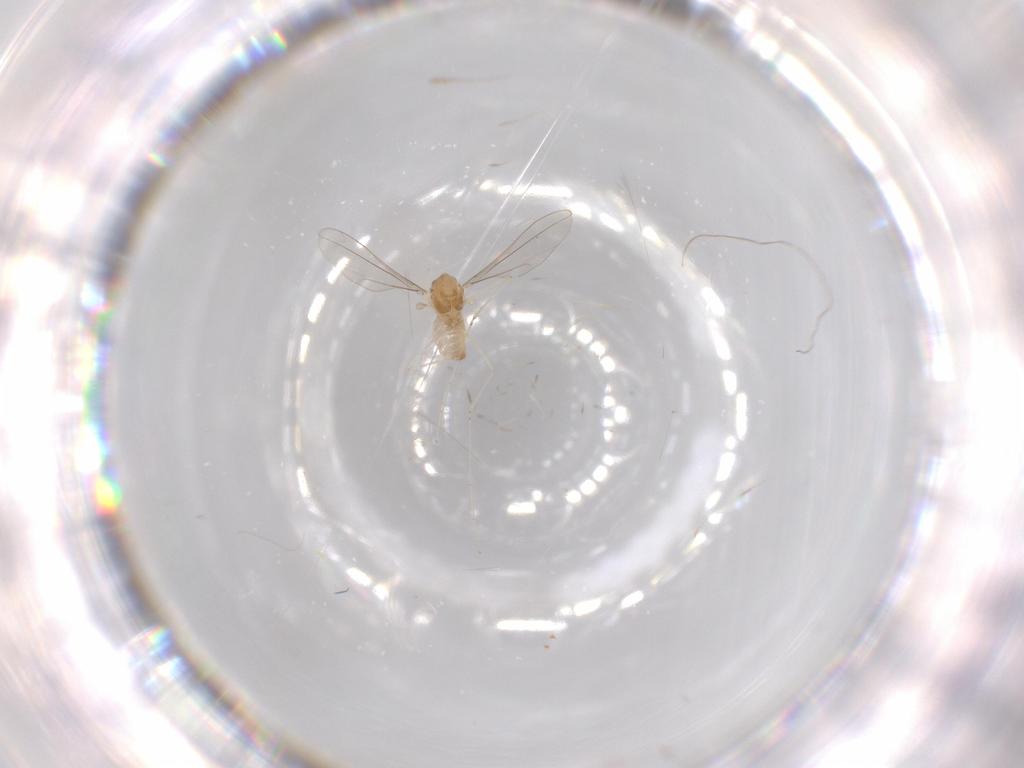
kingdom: Animalia
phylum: Arthropoda
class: Insecta
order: Diptera
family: Cecidomyiidae
